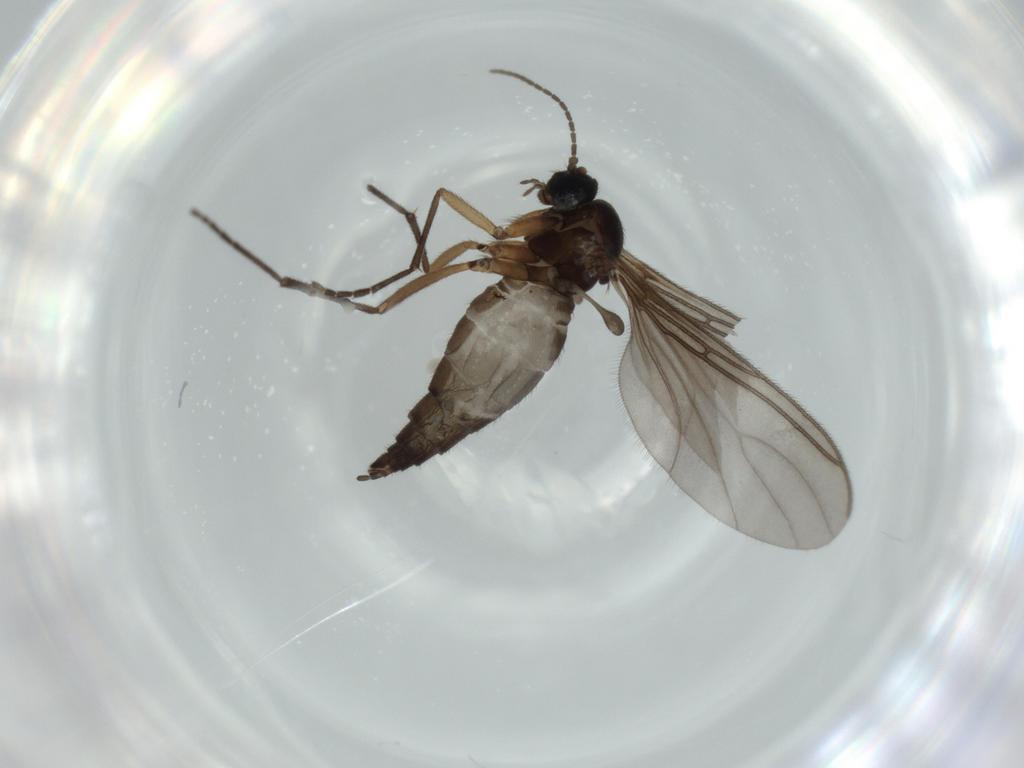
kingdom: Animalia
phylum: Arthropoda
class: Insecta
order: Diptera
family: Sciaridae
